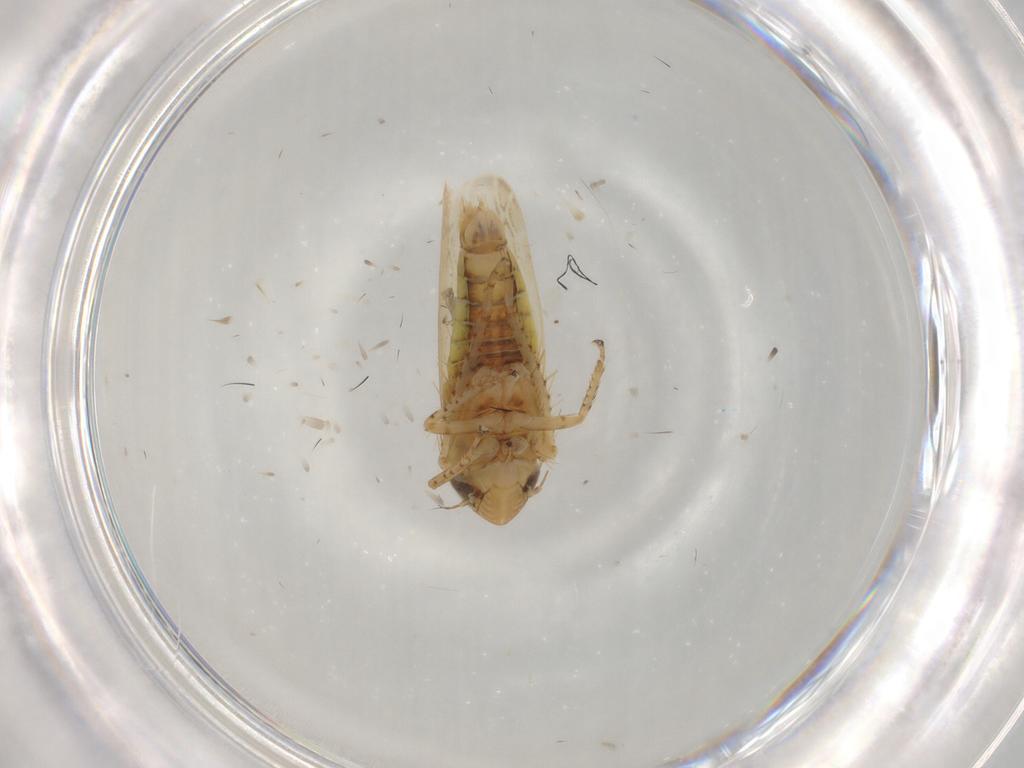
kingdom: Animalia
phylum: Arthropoda
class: Insecta
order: Hemiptera
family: Cicadellidae
